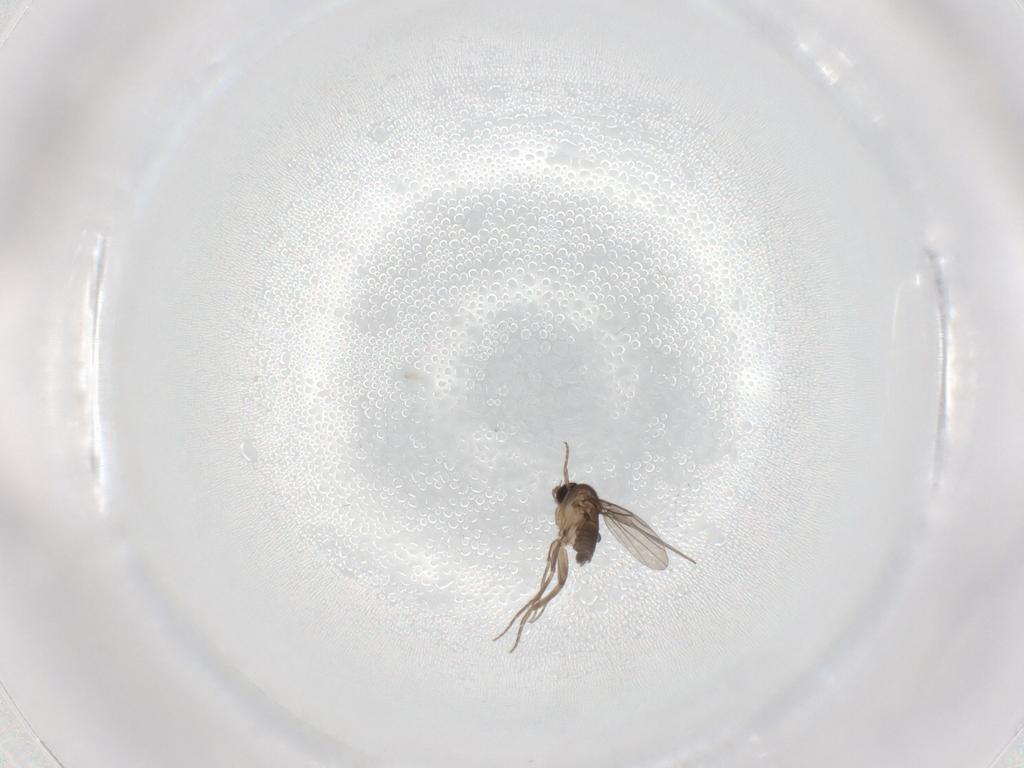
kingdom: Animalia
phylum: Arthropoda
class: Insecta
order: Diptera
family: Phoridae
